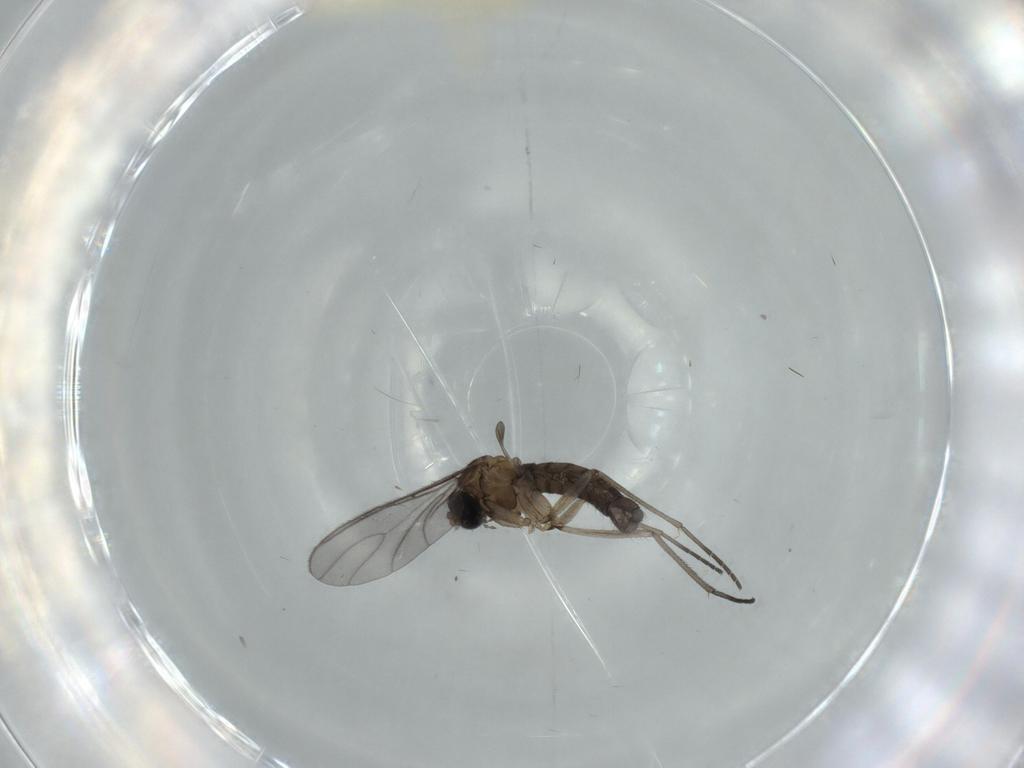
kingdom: Animalia
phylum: Arthropoda
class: Insecta
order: Diptera
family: Sciaridae
